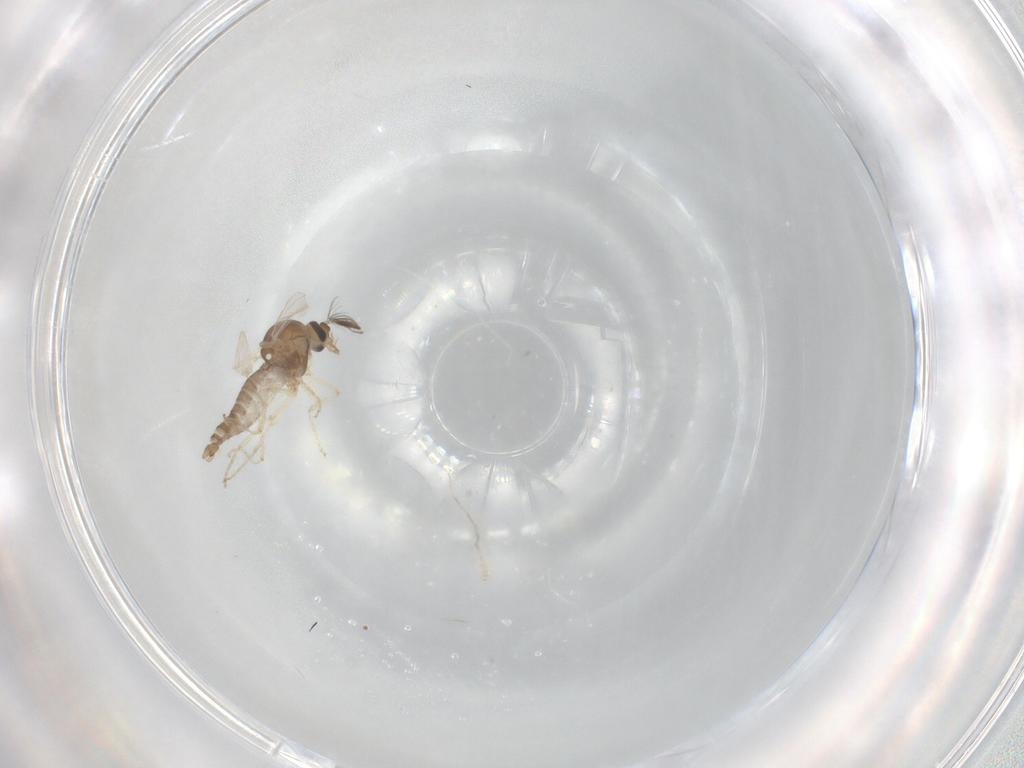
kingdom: Animalia
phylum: Arthropoda
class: Insecta
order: Diptera
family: Ceratopogonidae
